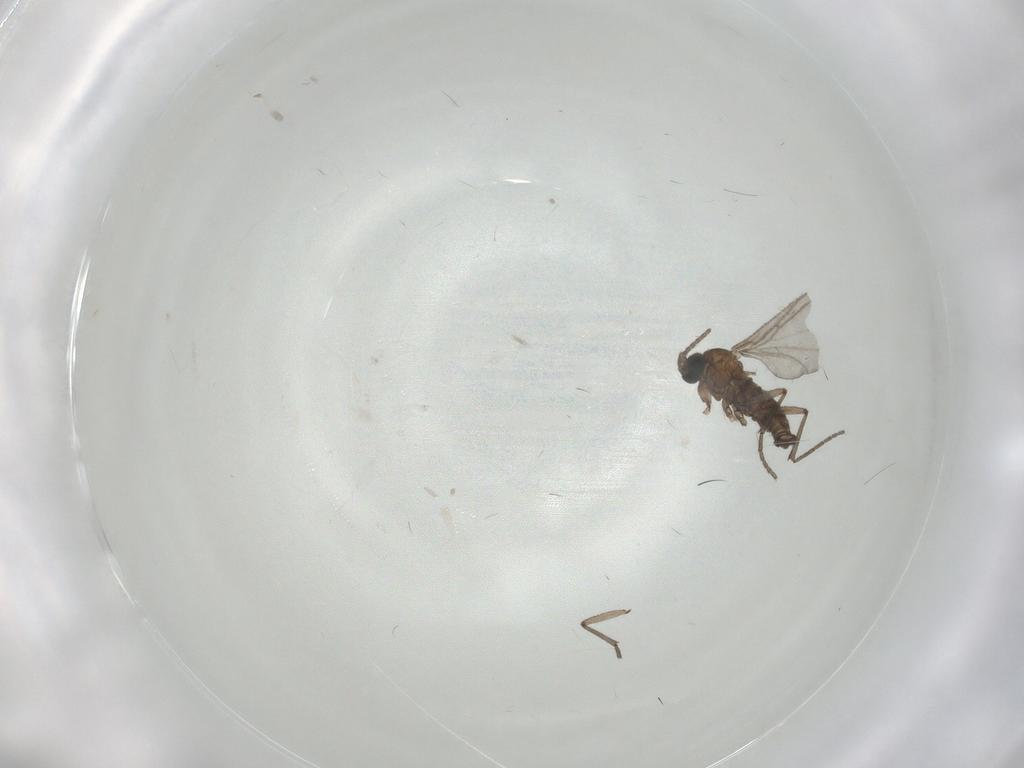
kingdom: Animalia
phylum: Arthropoda
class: Insecta
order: Diptera
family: Sciaridae
